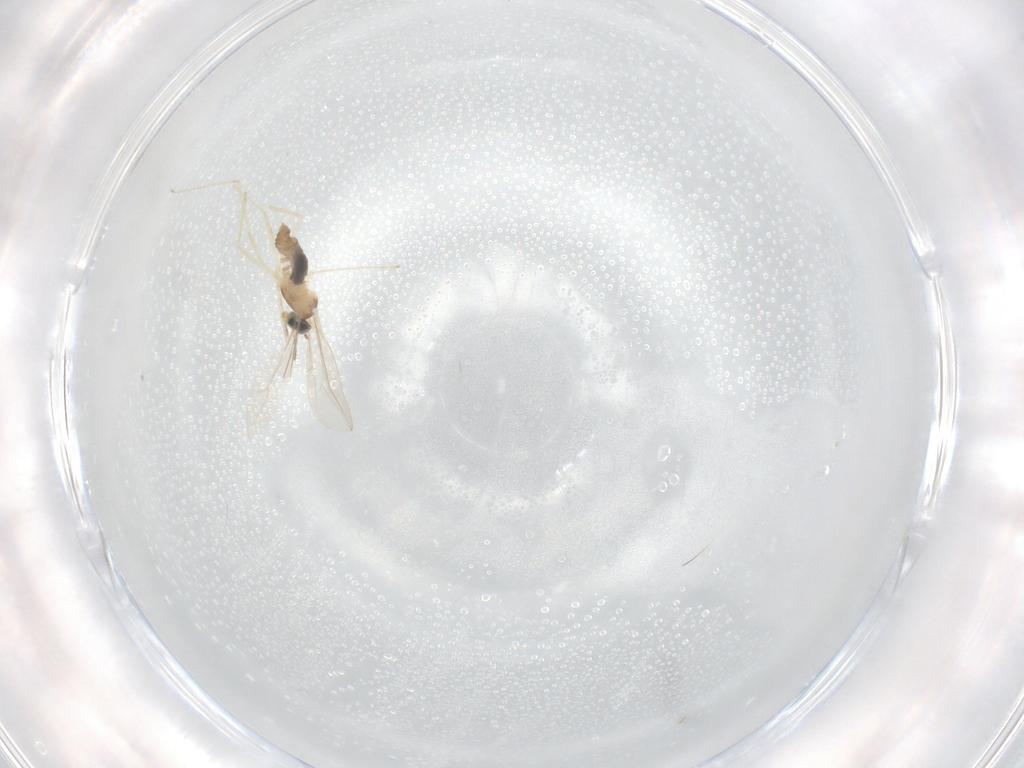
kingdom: Animalia
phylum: Arthropoda
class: Insecta
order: Diptera
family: Cecidomyiidae
